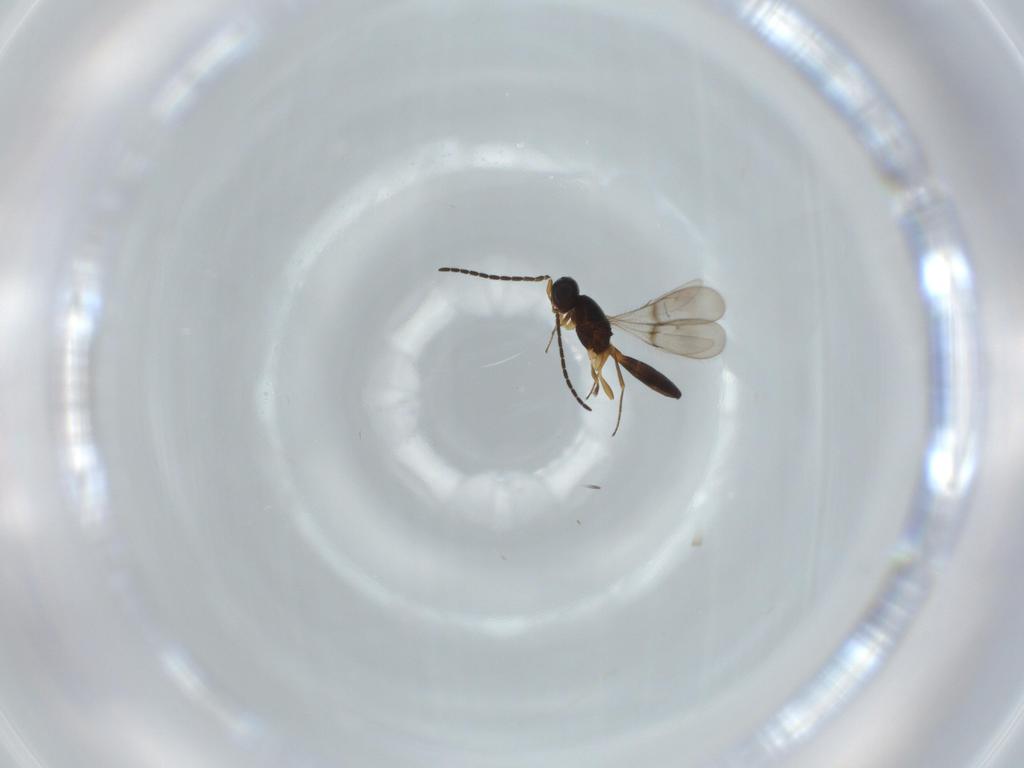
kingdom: Animalia
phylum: Arthropoda
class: Insecta
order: Hymenoptera
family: Scelionidae
